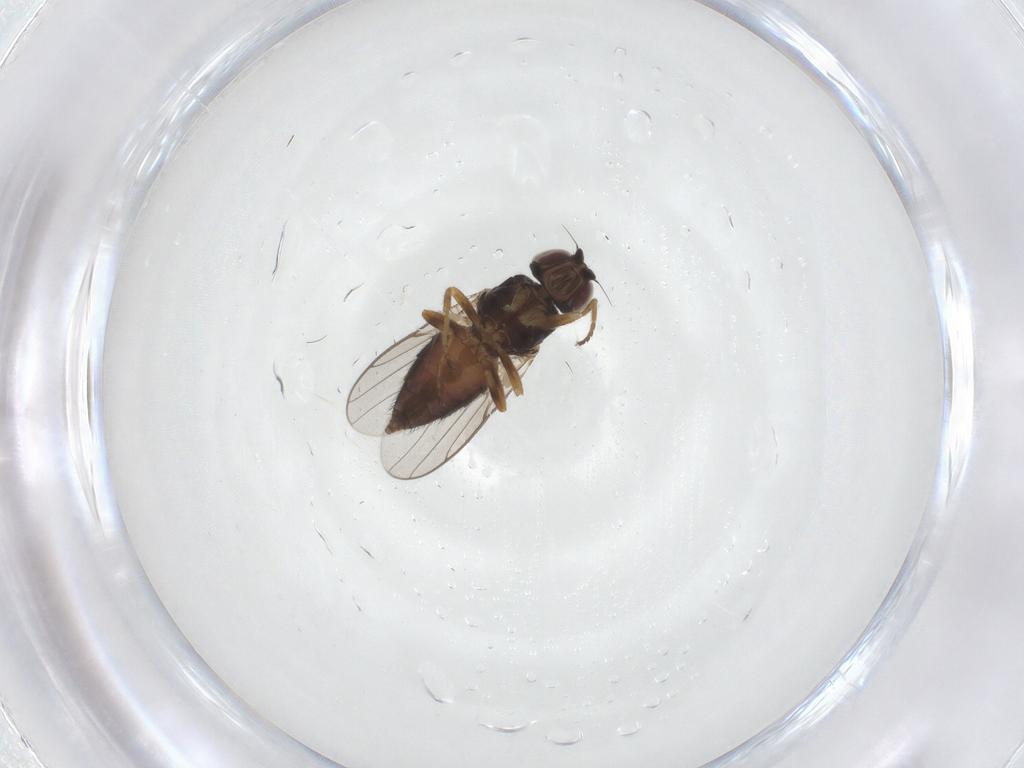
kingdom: Animalia
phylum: Arthropoda
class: Insecta
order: Diptera
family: Chloropidae
